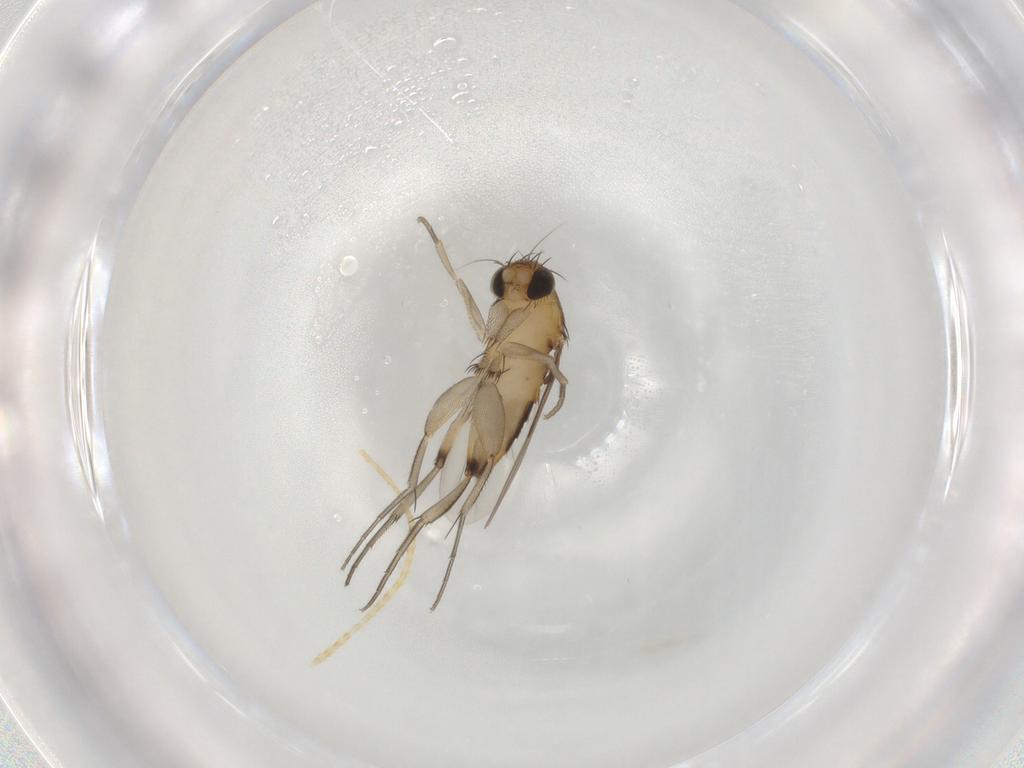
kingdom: Animalia
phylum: Arthropoda
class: Insecta
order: Diptera
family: Phoridae
